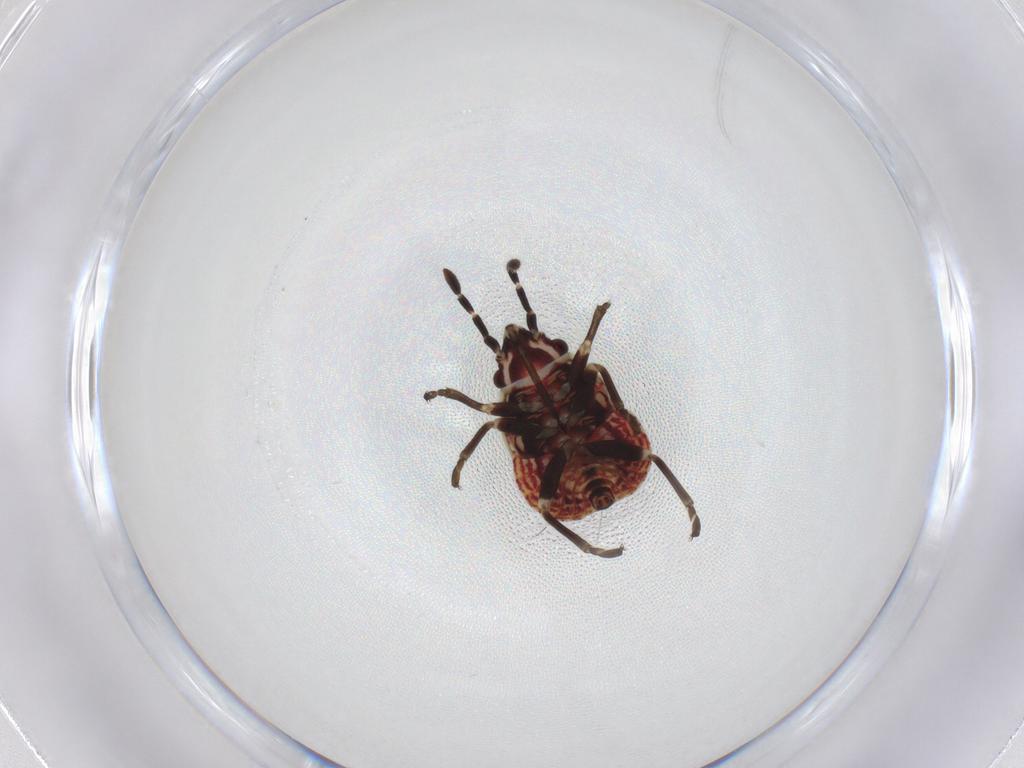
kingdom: Animalia
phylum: Arthropoda
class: Insecta
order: Hemiptera
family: Lygaeidae
